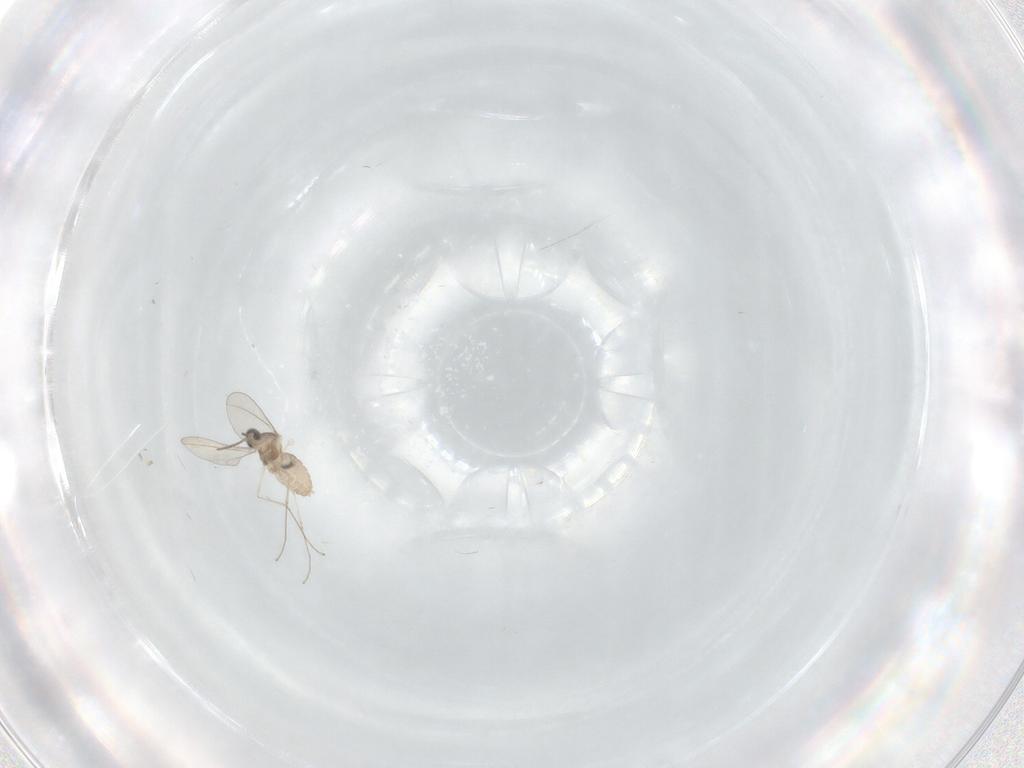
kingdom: Animalia
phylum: Arthropoda
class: Insecta
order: Diptera
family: Cecidomyiidae
